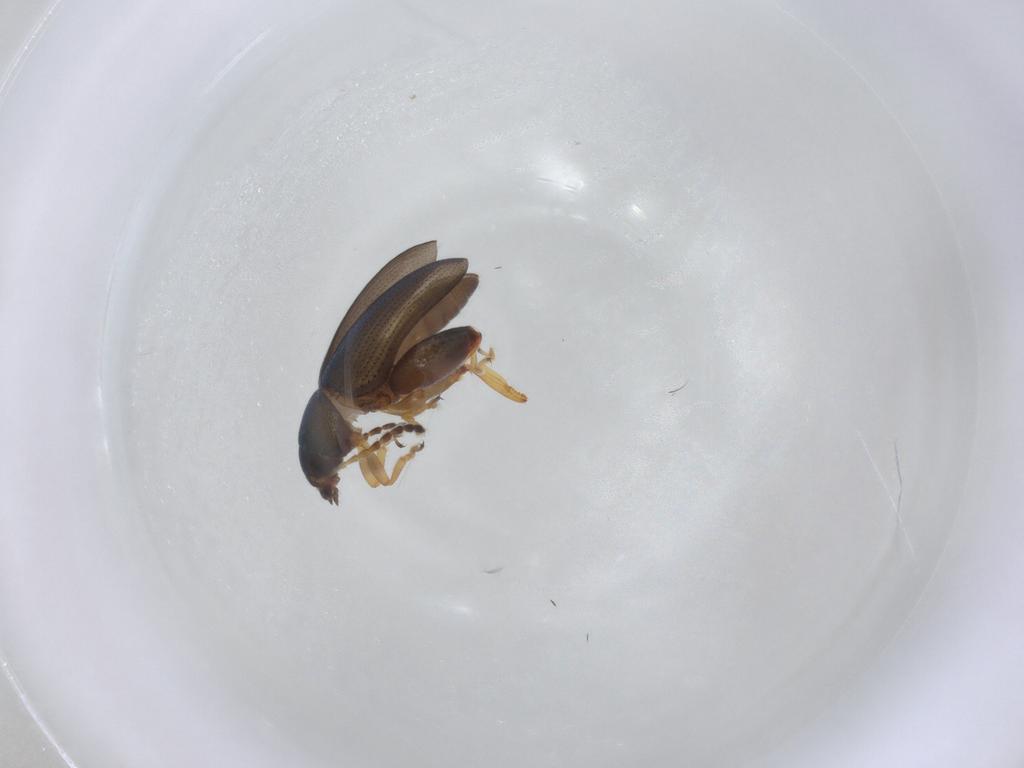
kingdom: Animalia
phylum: Arthropoda
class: Insecta
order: Coleoptera
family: Chrysomelidae
